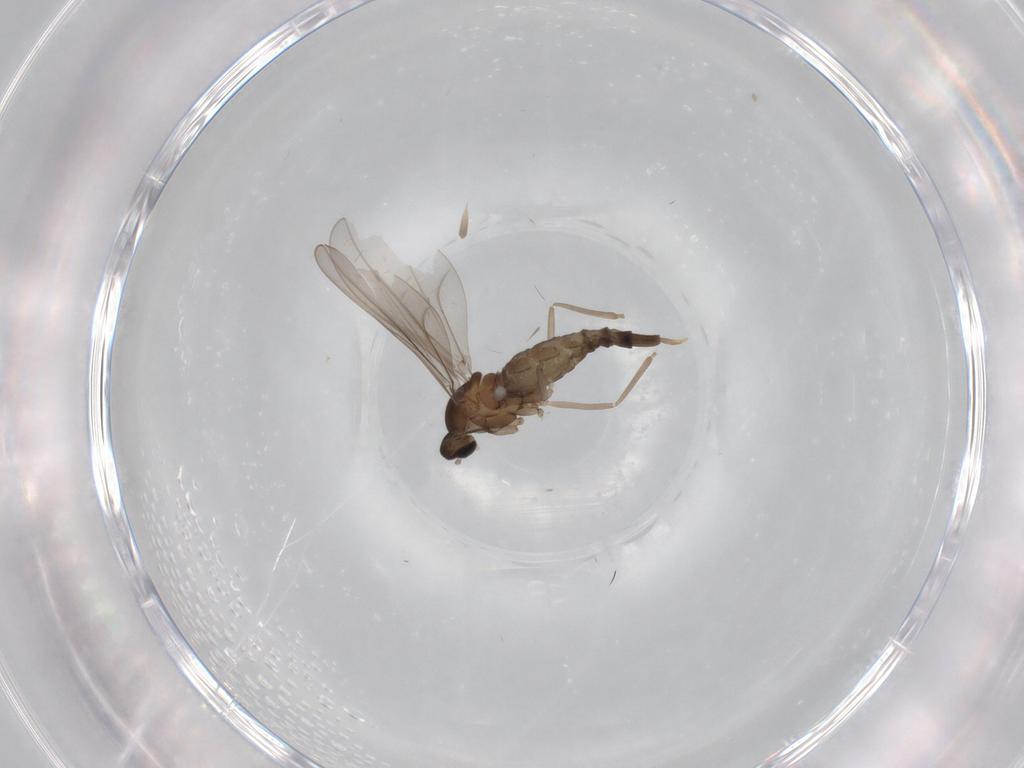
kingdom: Animalia
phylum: Arthropoda
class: Insecta
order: Diptera
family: Cecidomyiidae
